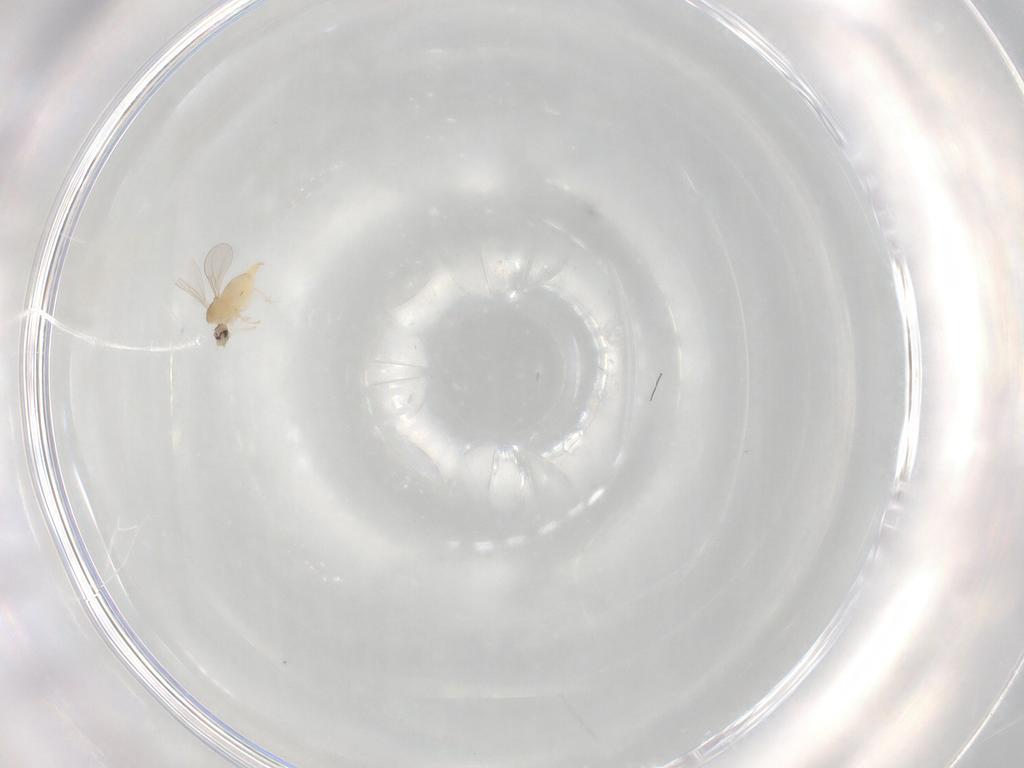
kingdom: Animalia
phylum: Arthropoda
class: Insecta
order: Diptera
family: Cecidomyiidae
